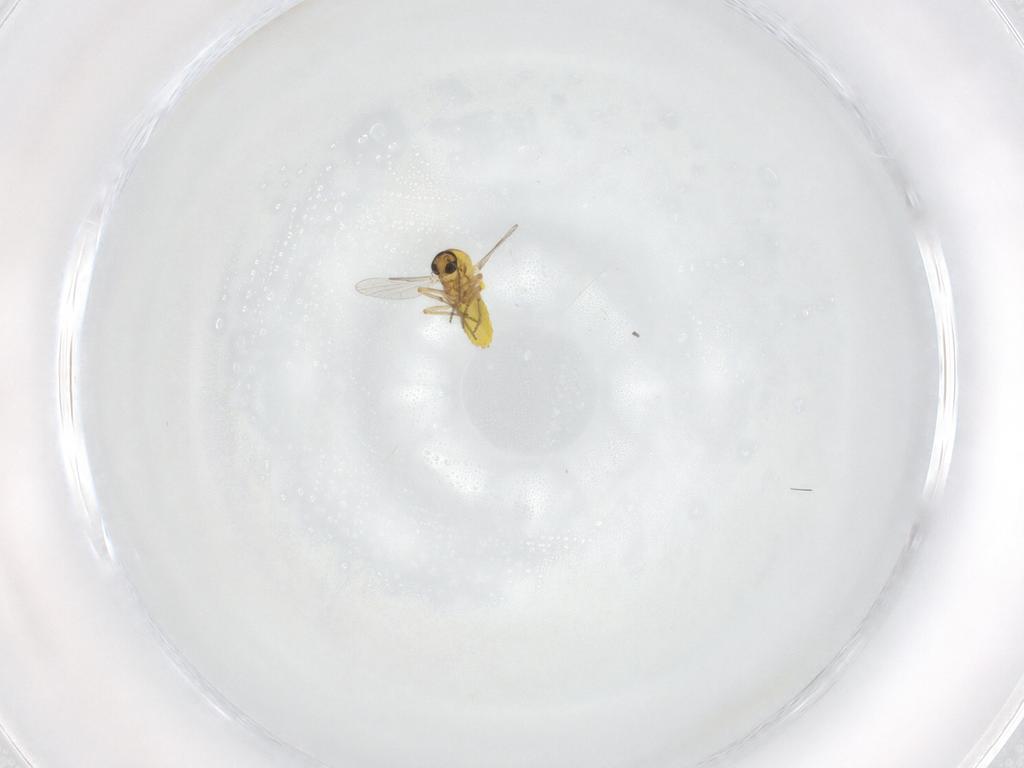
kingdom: Animalia
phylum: Arthropoda
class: Insecta
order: Diptera
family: Ceratopogonidae
